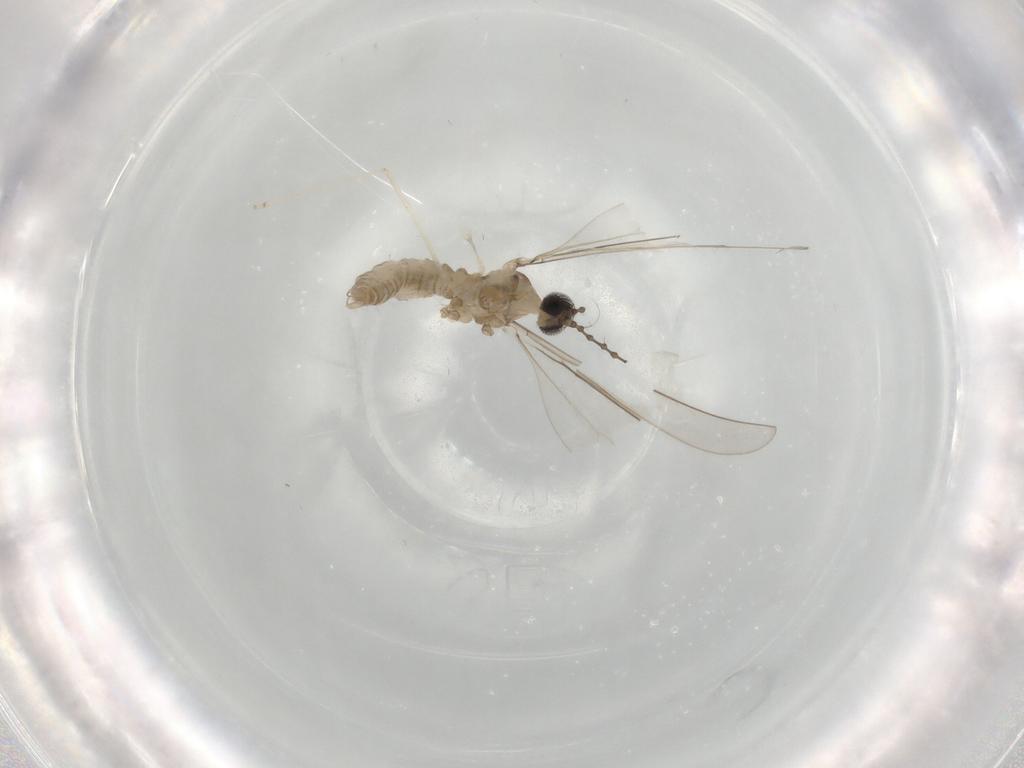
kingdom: Animalia
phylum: Arthropoda
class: Insecta
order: Diptera
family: Cecidomyiidae
